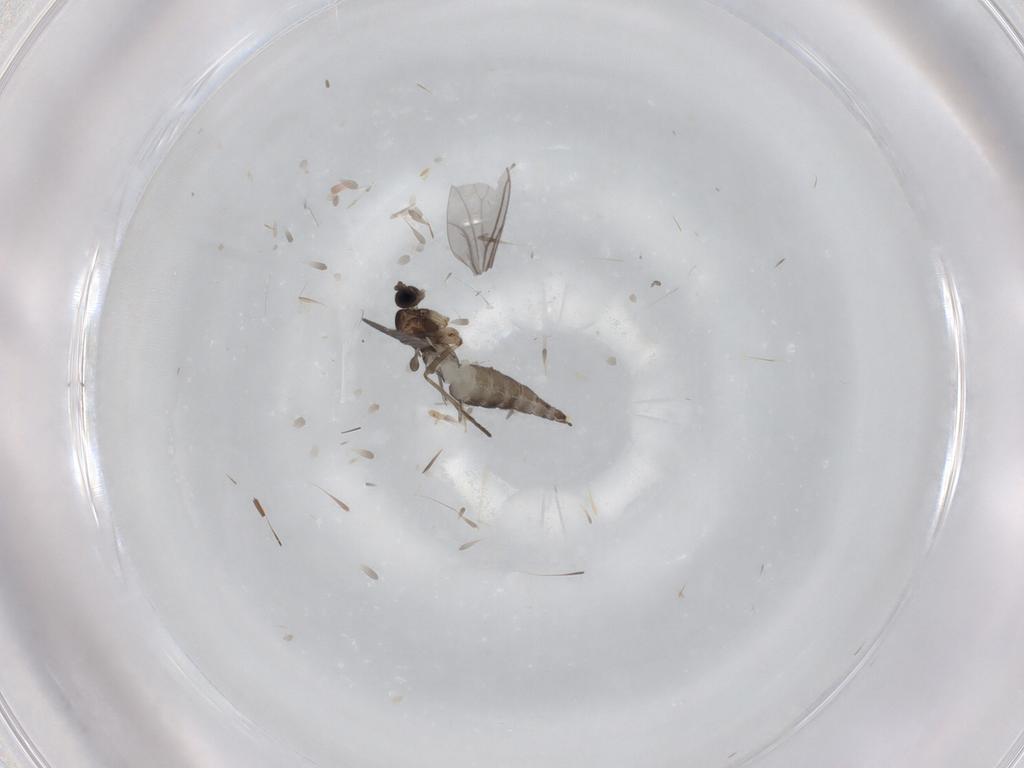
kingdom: Animalia
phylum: Arthropoda
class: Insecta
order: Diptera
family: Sciaridae
